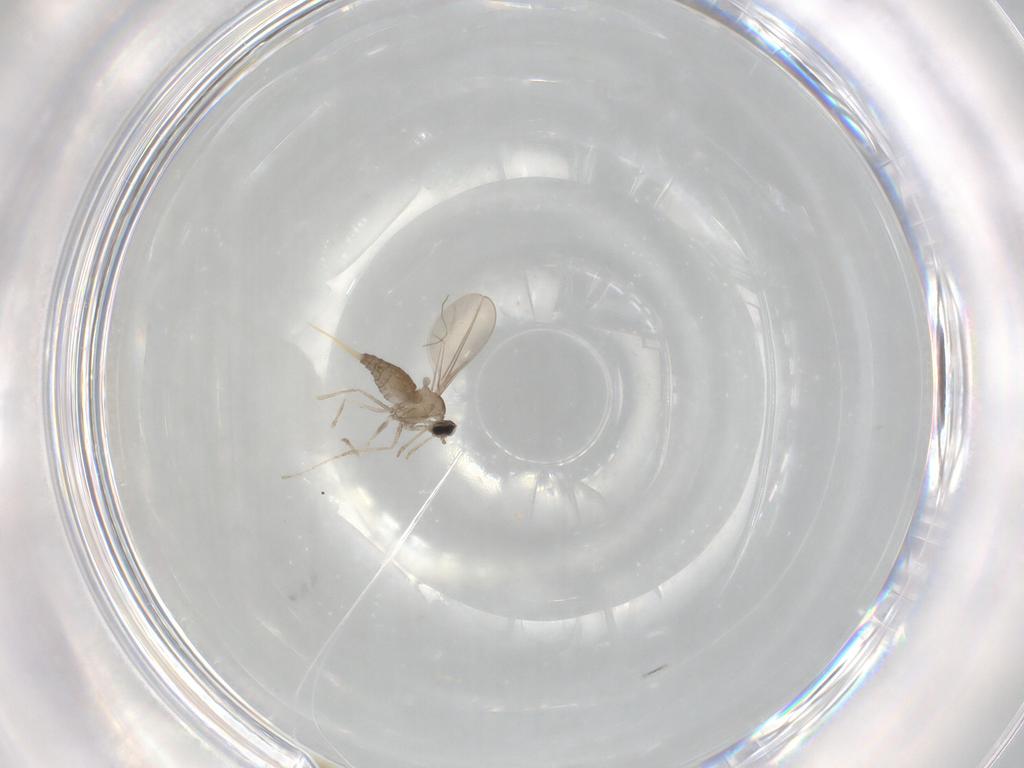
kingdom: Animalia
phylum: Arthropoda
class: Insecta
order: Diptera
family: Cecidomyiidae
